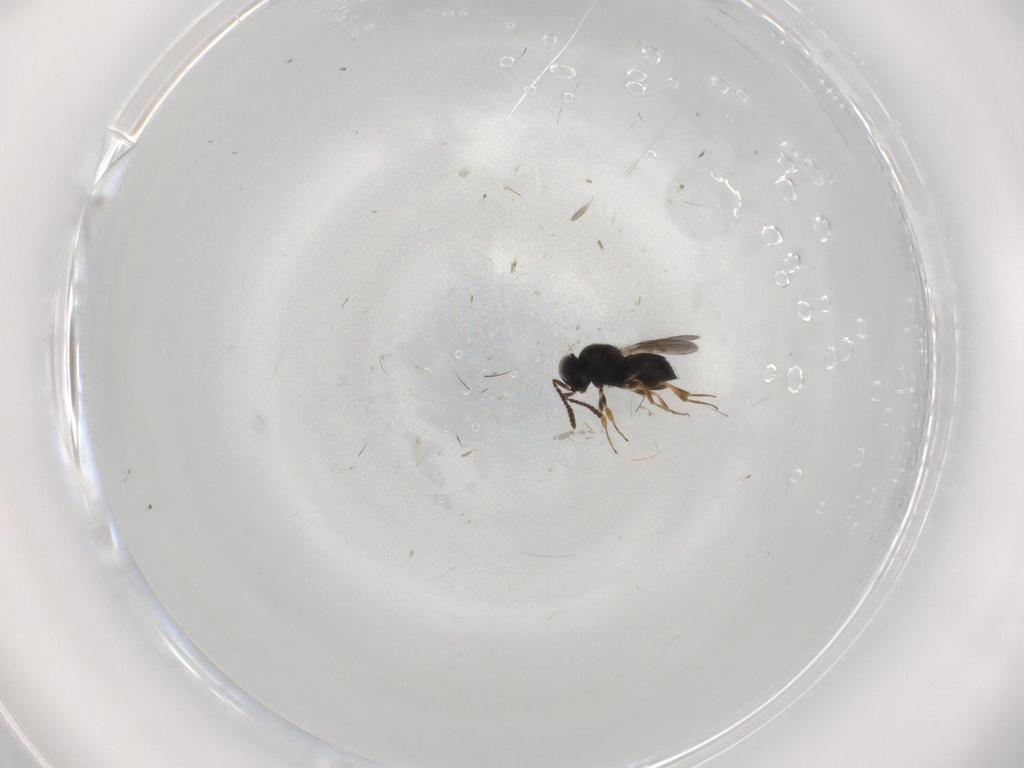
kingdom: Animalia
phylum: Arthropoda
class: Insecta
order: Hymenoptera
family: Scelionidae
